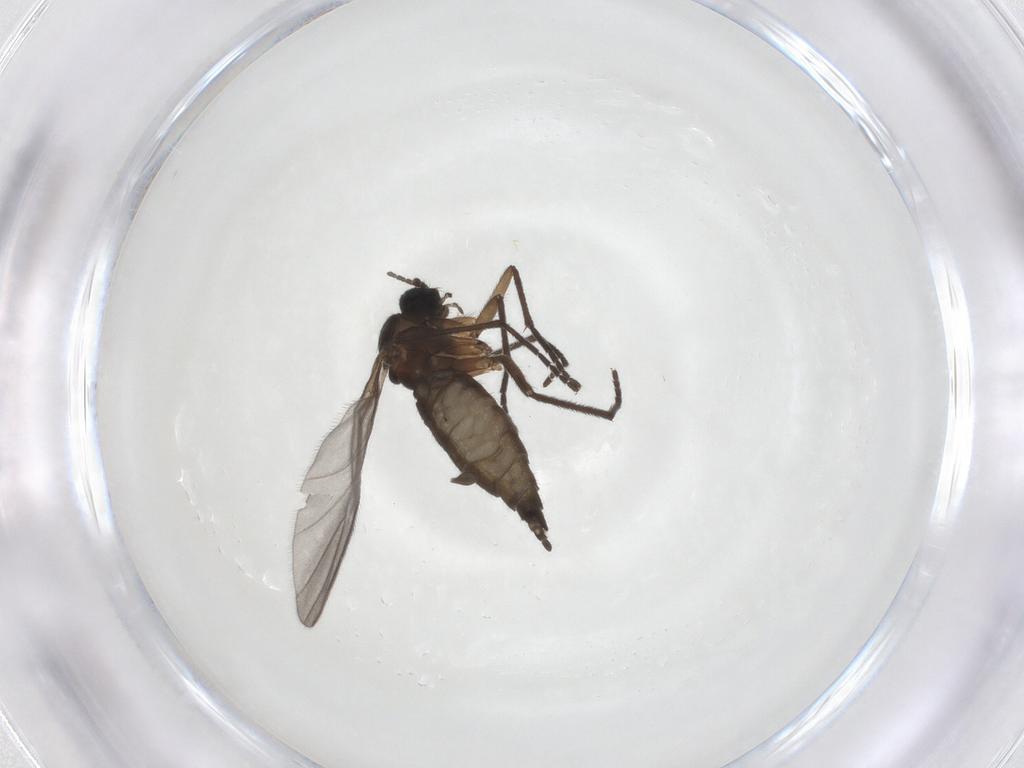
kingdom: Animalia
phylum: Arthropoda
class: Insecta
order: Diptera
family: Sciaridae
